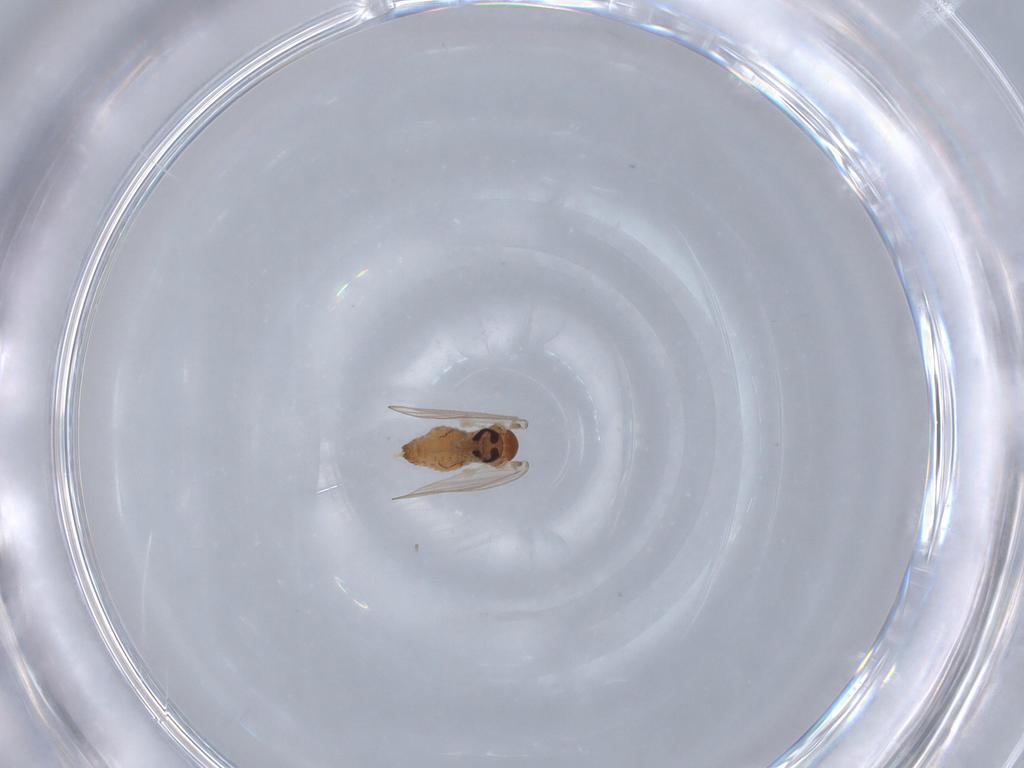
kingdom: Animalia
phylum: Arthropoda
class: Insecta
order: Diptera
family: Psychodidae
